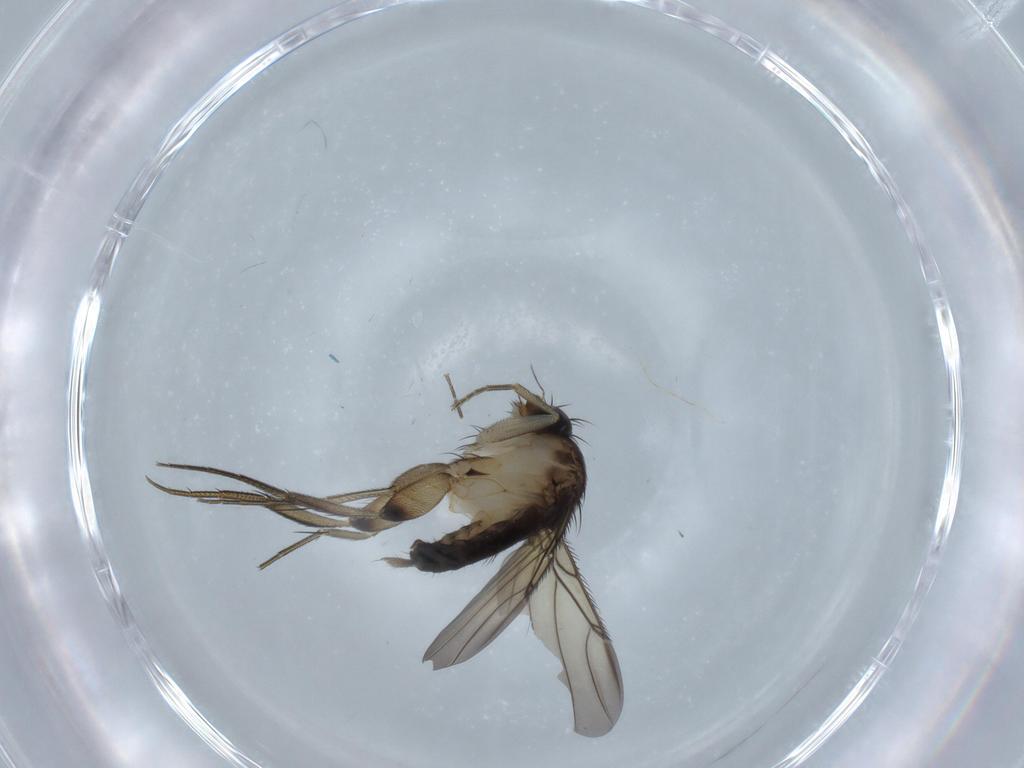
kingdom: Animalia
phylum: Arthropoda
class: Insecta
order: Diptera
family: Phoridae
